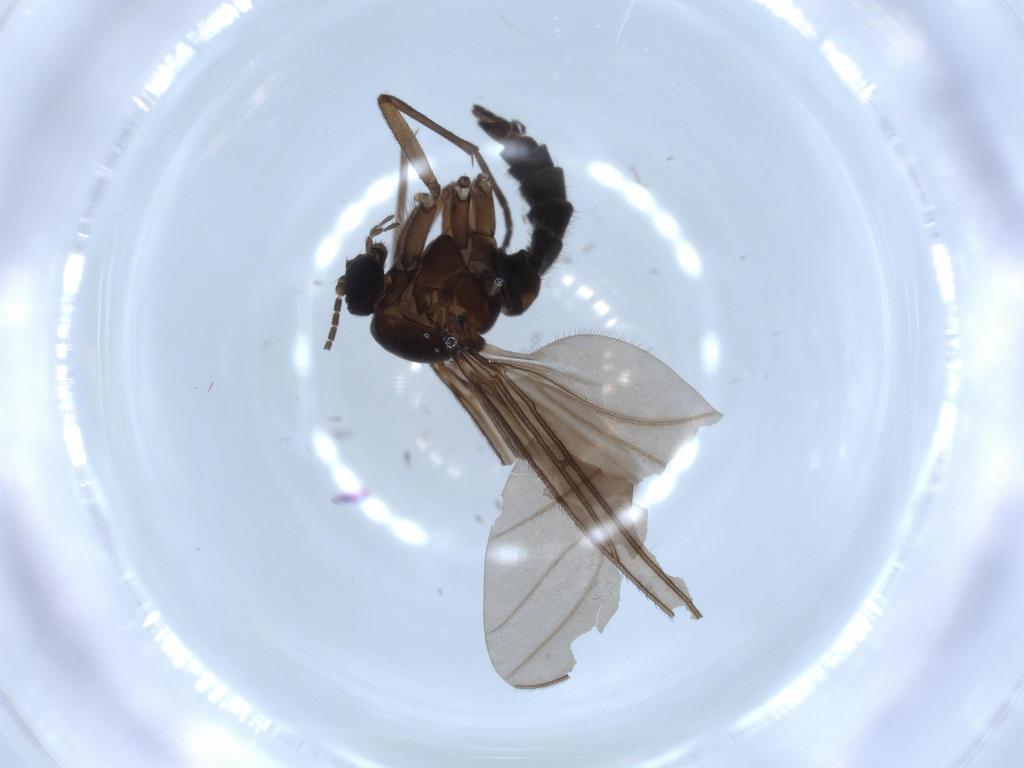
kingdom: Animalia
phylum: Arthropoda
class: Insecta
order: Diptera
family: Sciaridae
